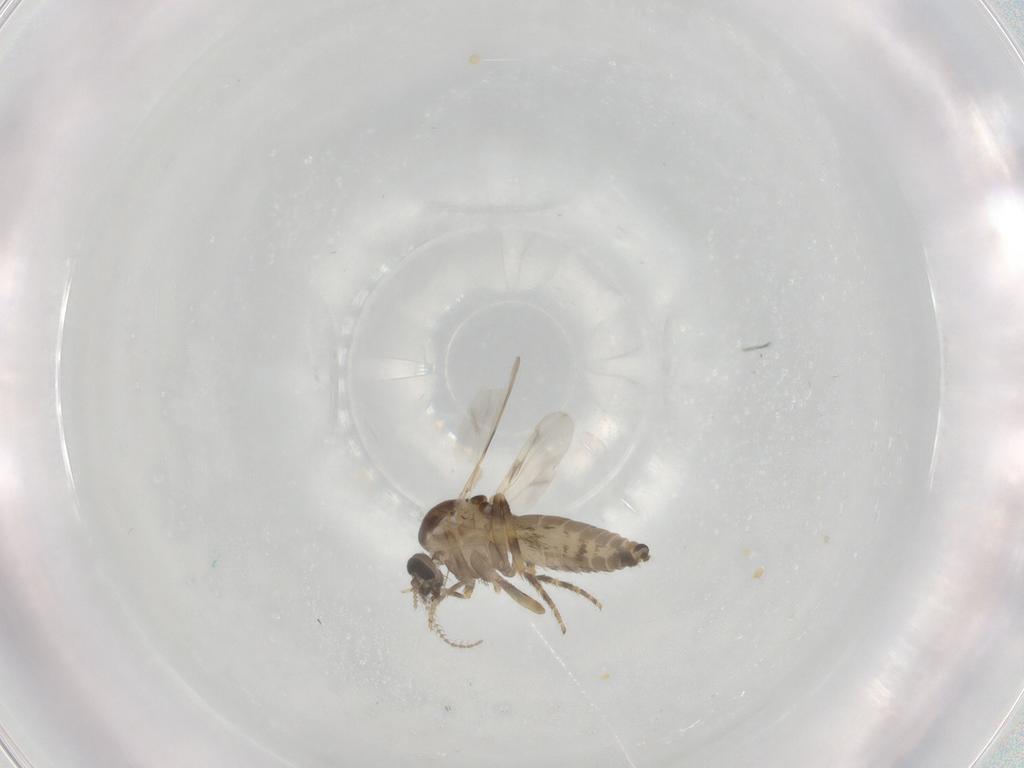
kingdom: Animalia
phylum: Arthropoda
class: Insecta
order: Diptera
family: Ceratopogonidae
